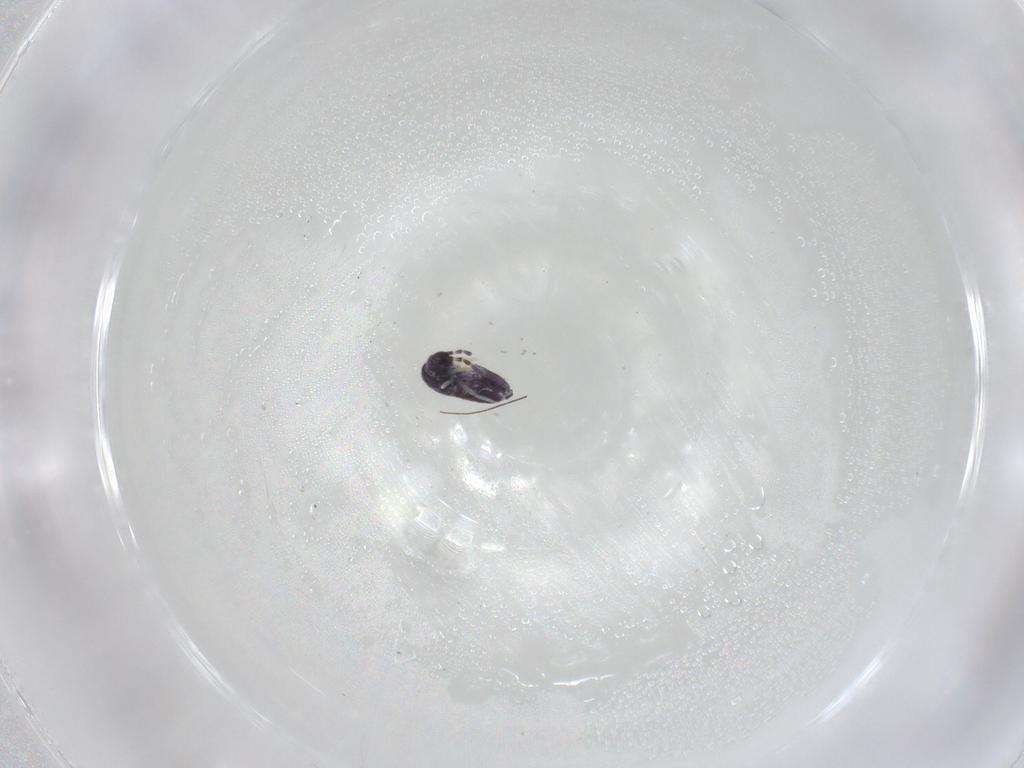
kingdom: Animalia
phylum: Arthropoda
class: Collembola
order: Entomobryomorpha
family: Entomobryidae
